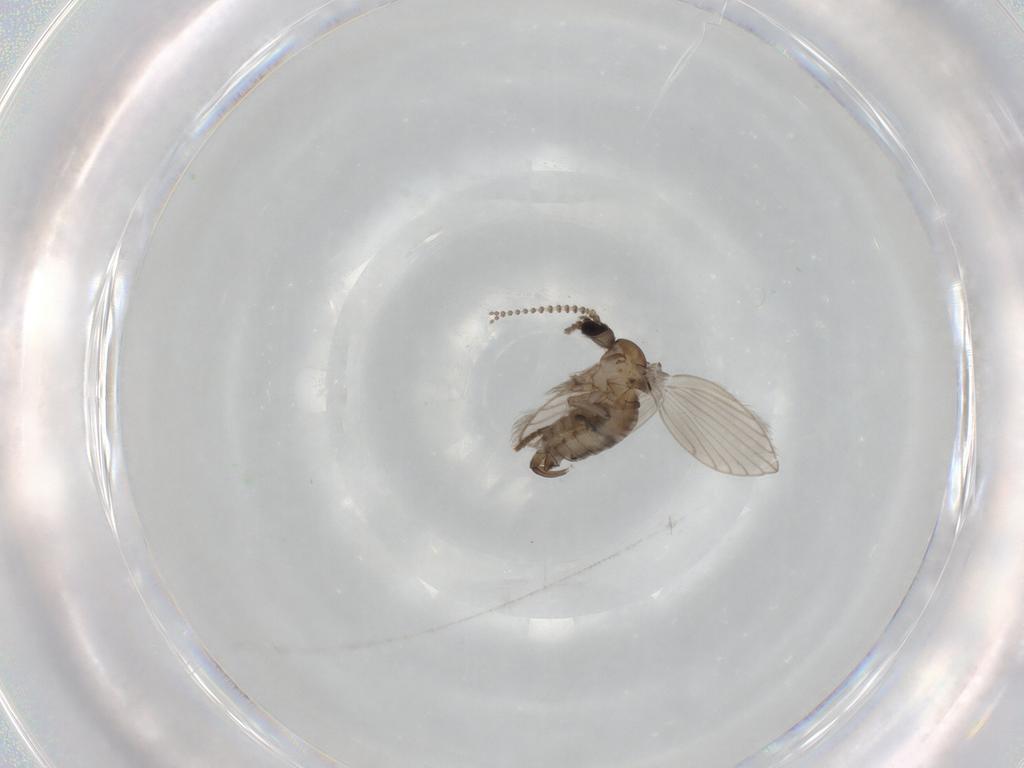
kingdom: Animalia
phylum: Arthropoda
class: Insecta
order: Diptera
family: Psychodidae
